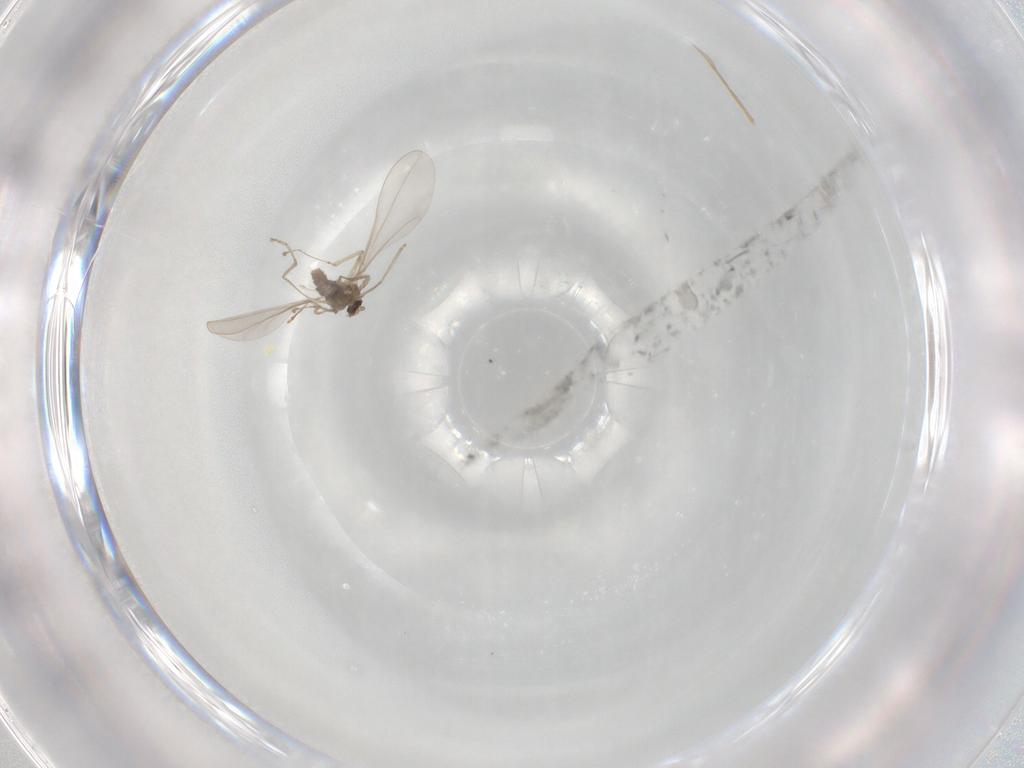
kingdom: Animalia
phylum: Arthropoda
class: Insecta
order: Diptera
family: Cecidomyiidae
